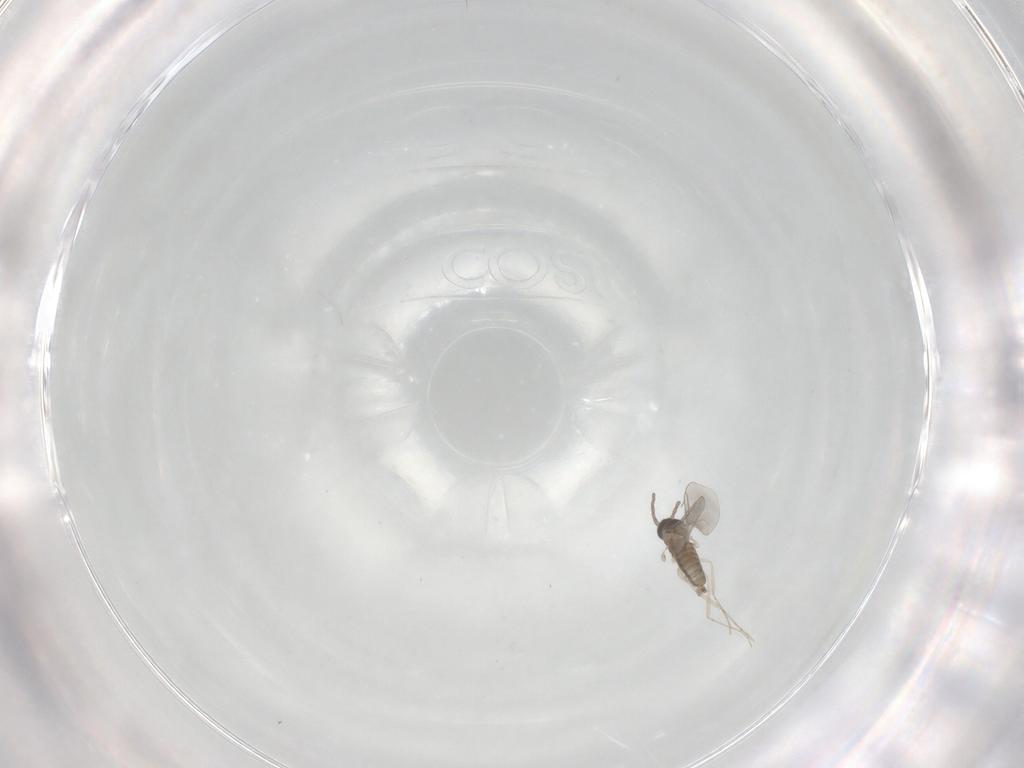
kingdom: Animalia
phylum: Arthropoda
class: Insecta
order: Diptera
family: Cecidomyiidae
